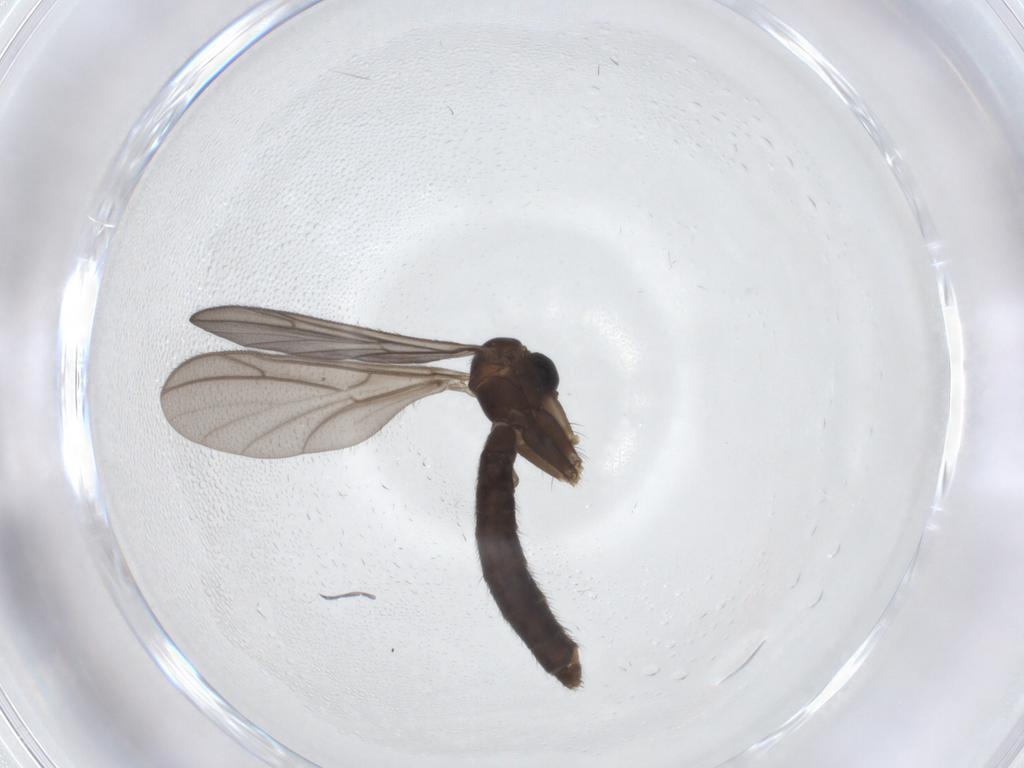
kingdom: Animalia
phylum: Arthropoda
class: Insecta
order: Diptera
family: Keroplatidae
